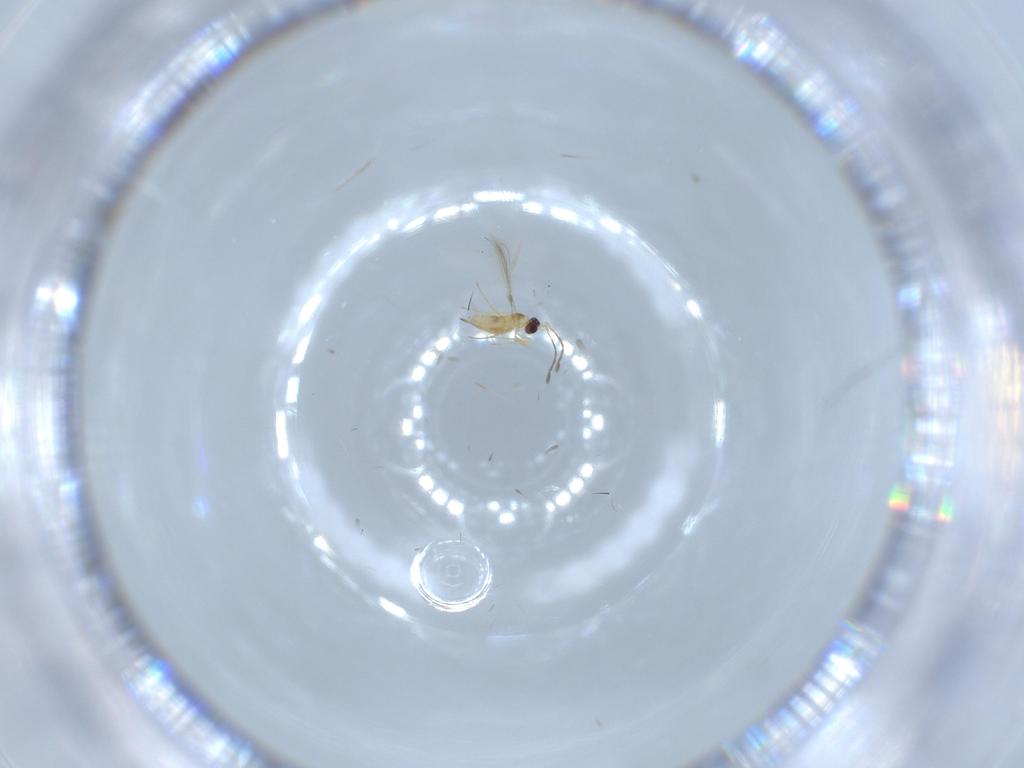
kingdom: Animalia
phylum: Arthropoda
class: Insecta
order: Hymenoptera
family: Mymaridae
